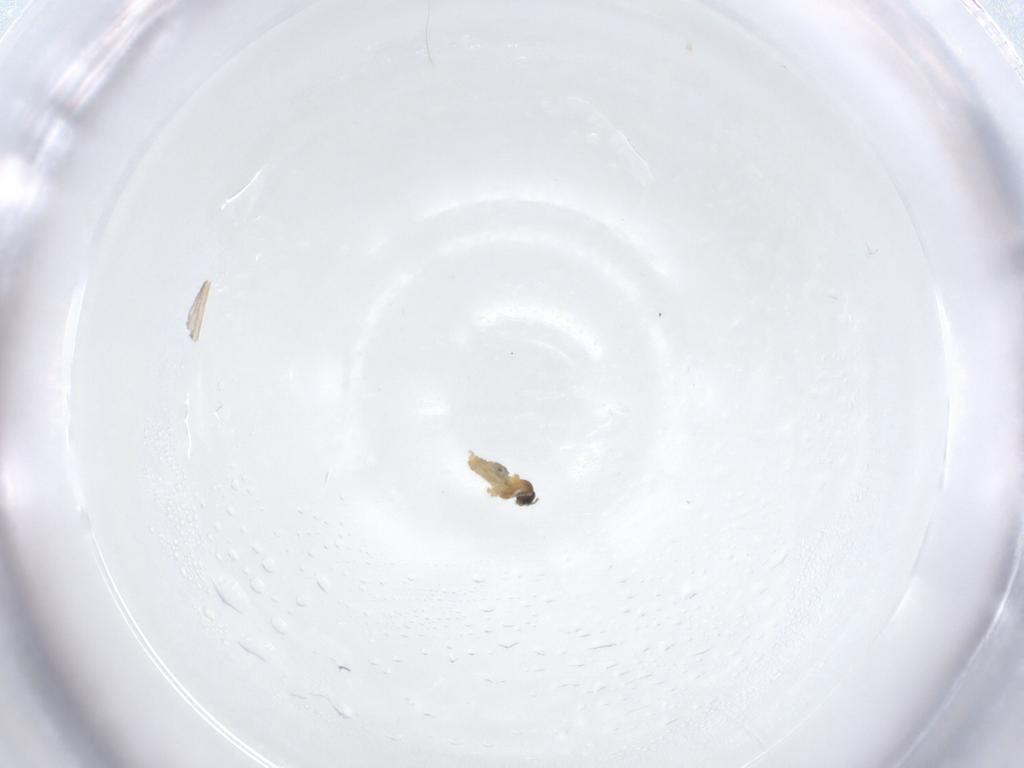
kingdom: Animalia
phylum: Arthropoda
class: Insecta
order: Diptera
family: Cecidomyiidae
